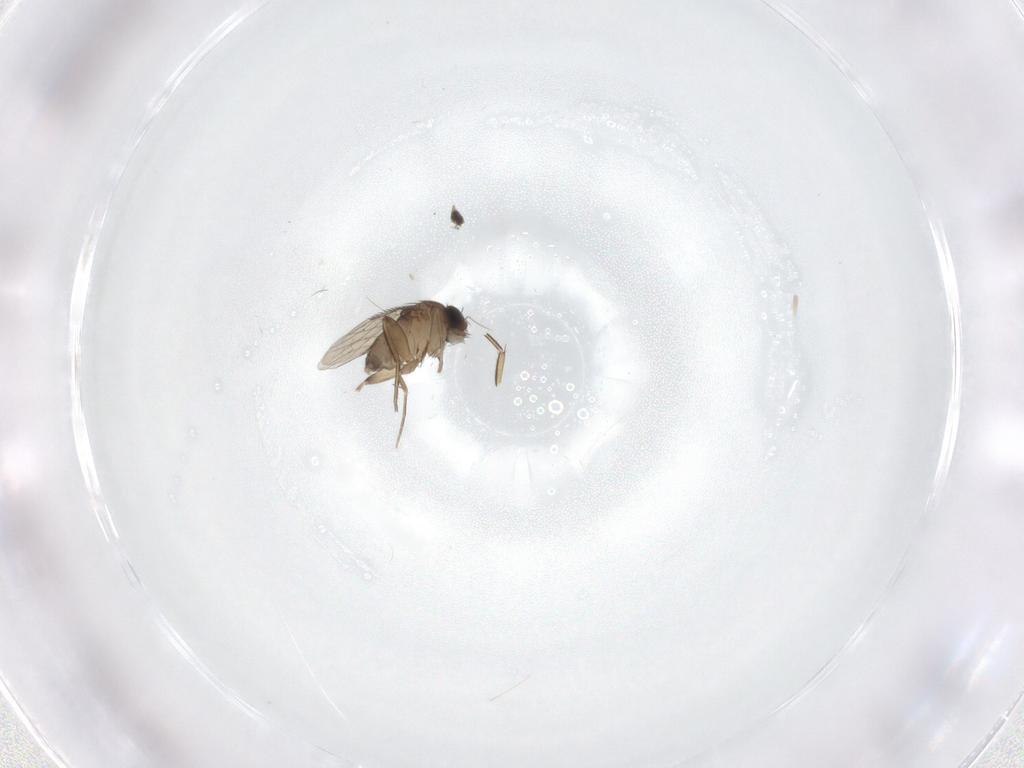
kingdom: Animalia
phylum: Arthropoda
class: Insecta
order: Diptera
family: Phoridae
